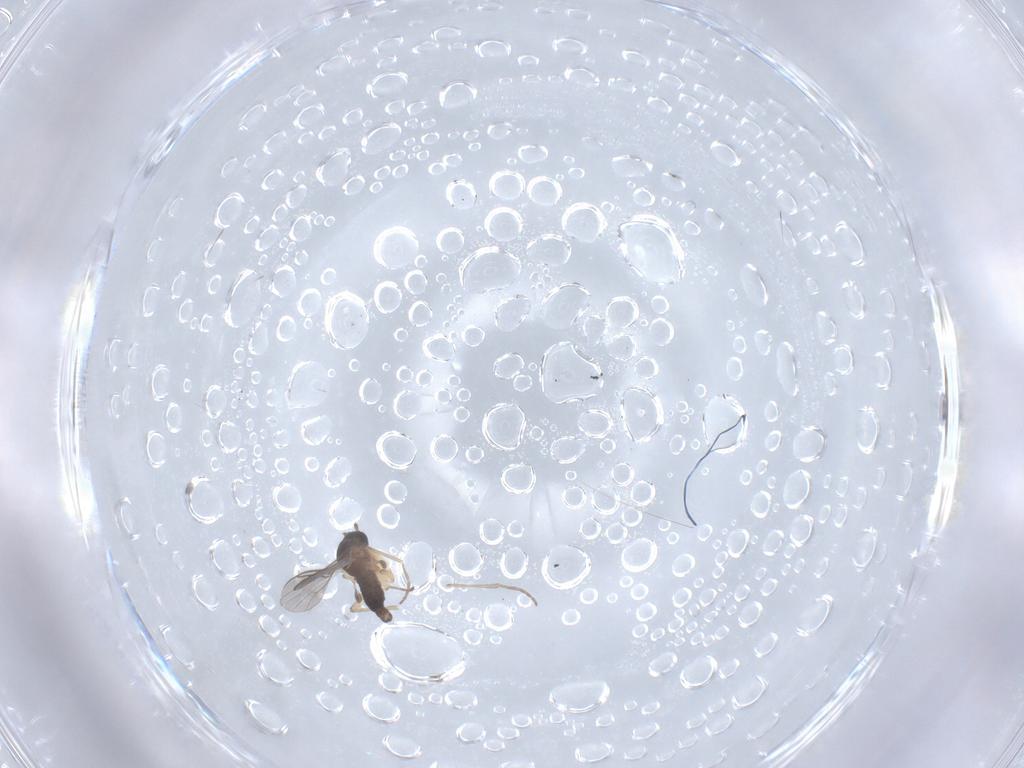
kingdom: Animalia
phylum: Arthropoda
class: Insecta
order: Diptera
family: Sciaridae
